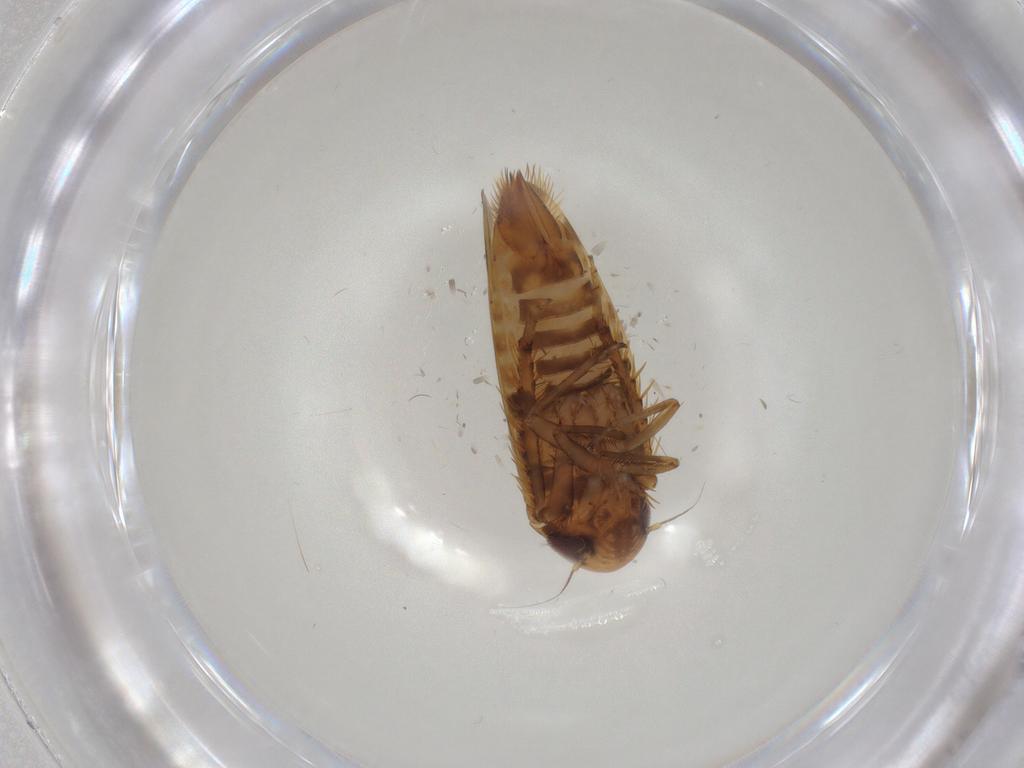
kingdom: Animalia
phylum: Arthropoda
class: Insecta
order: Hemiptera
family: Cicadellidae
